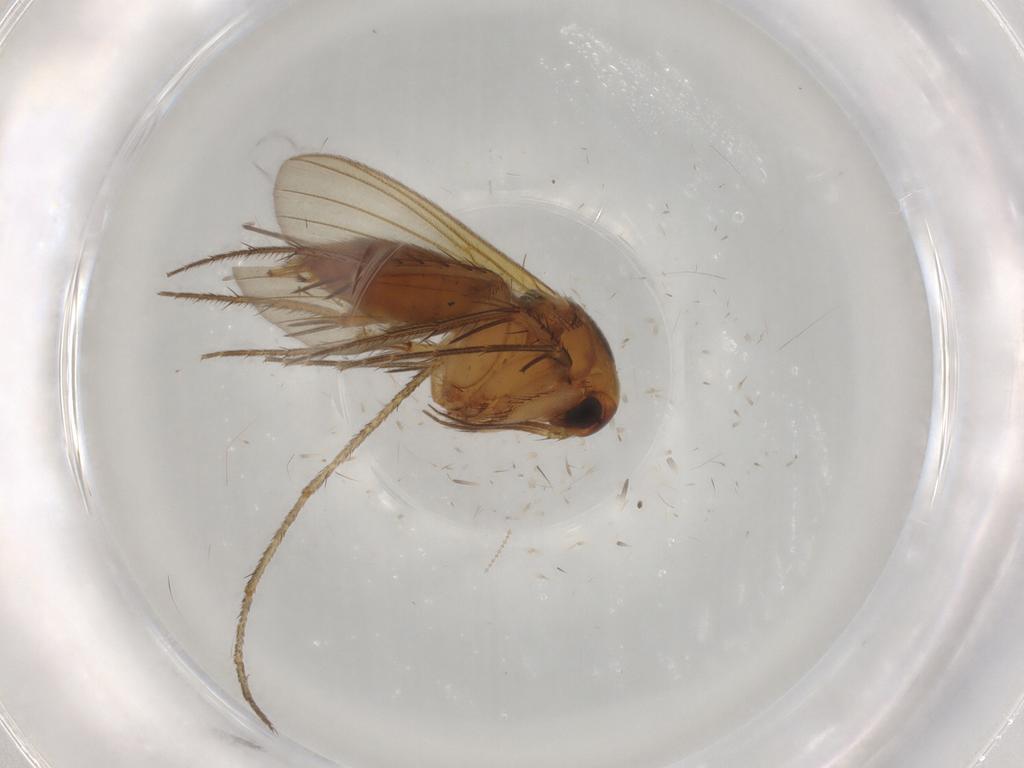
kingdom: Animalia
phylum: Arthropoda
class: Insecta
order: Diptera
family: Mycetophilidae
